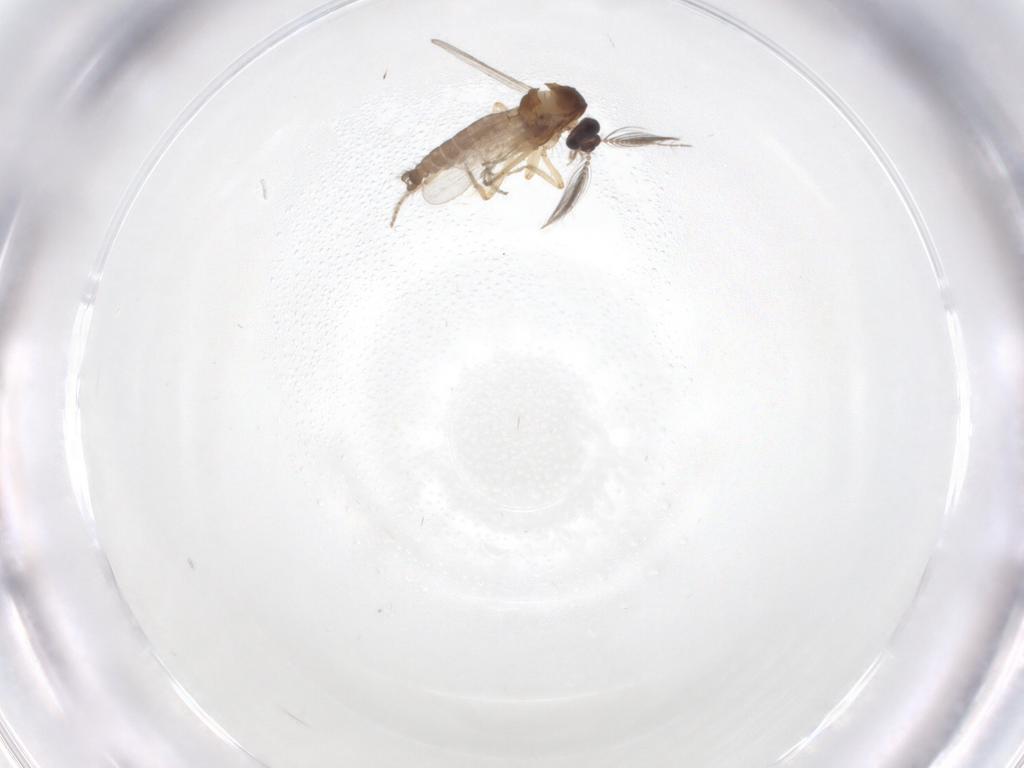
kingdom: Animalia
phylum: Arthropoda
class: Insecta
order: Diptera
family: Ceratopogonidae
